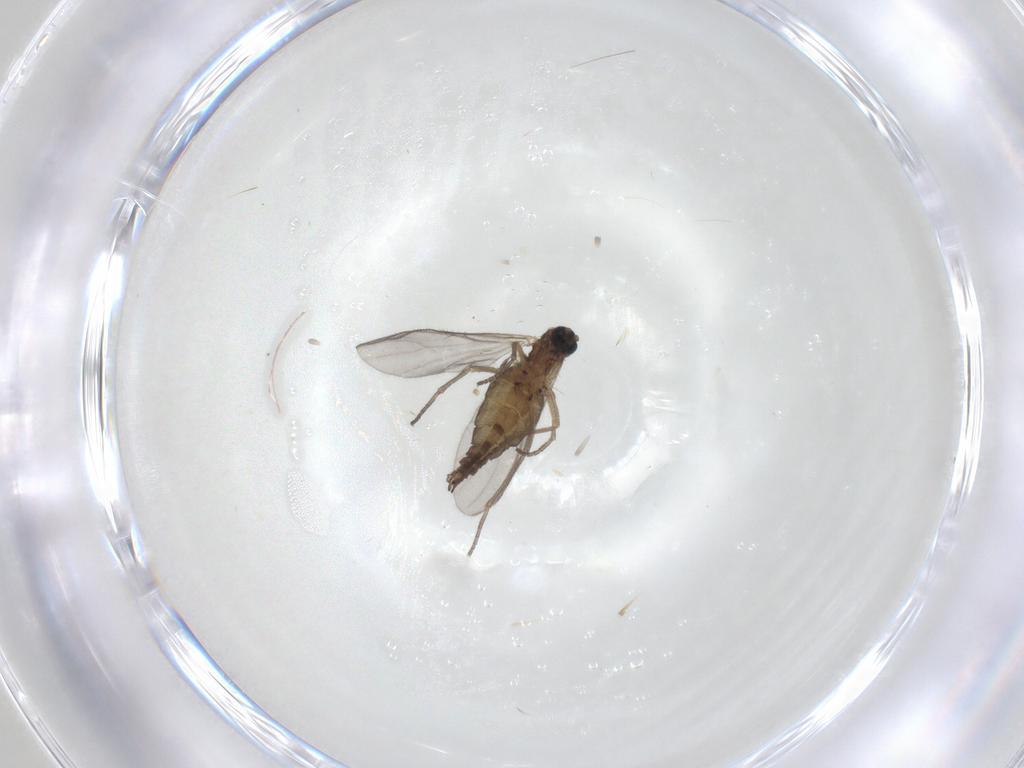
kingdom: Animalia
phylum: Arthropoda
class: Insecta
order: Diptera
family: Sciaridae
